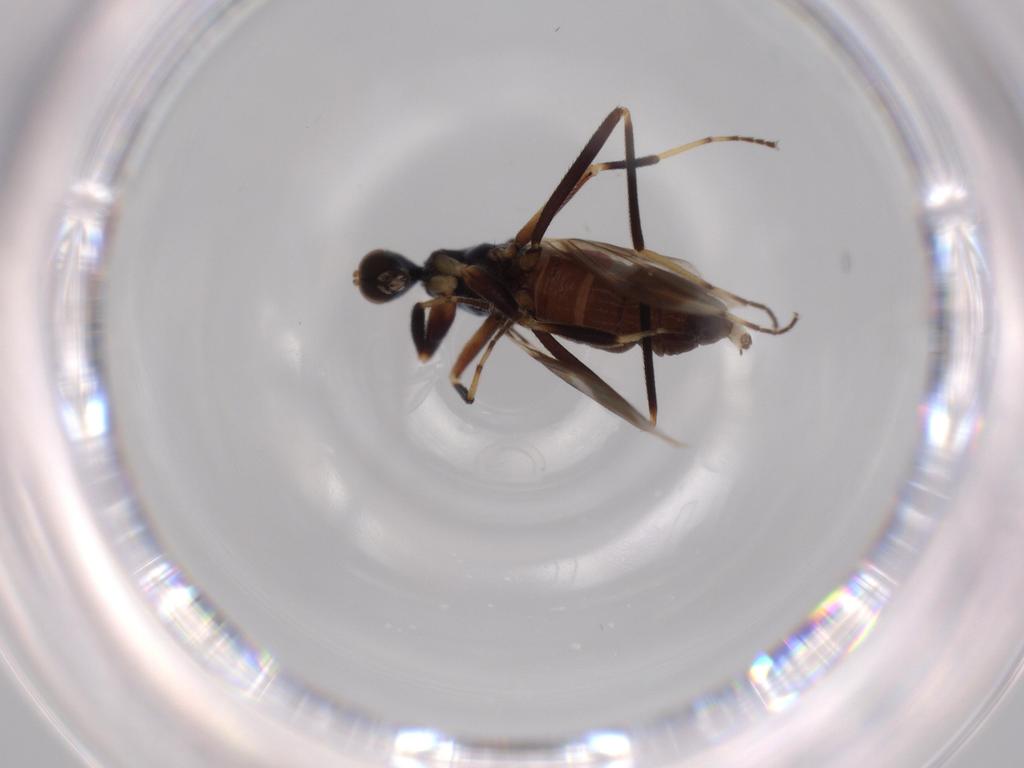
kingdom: Animalia
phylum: Arthropoda
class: Insecta
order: Diptera
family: Hybotidae
